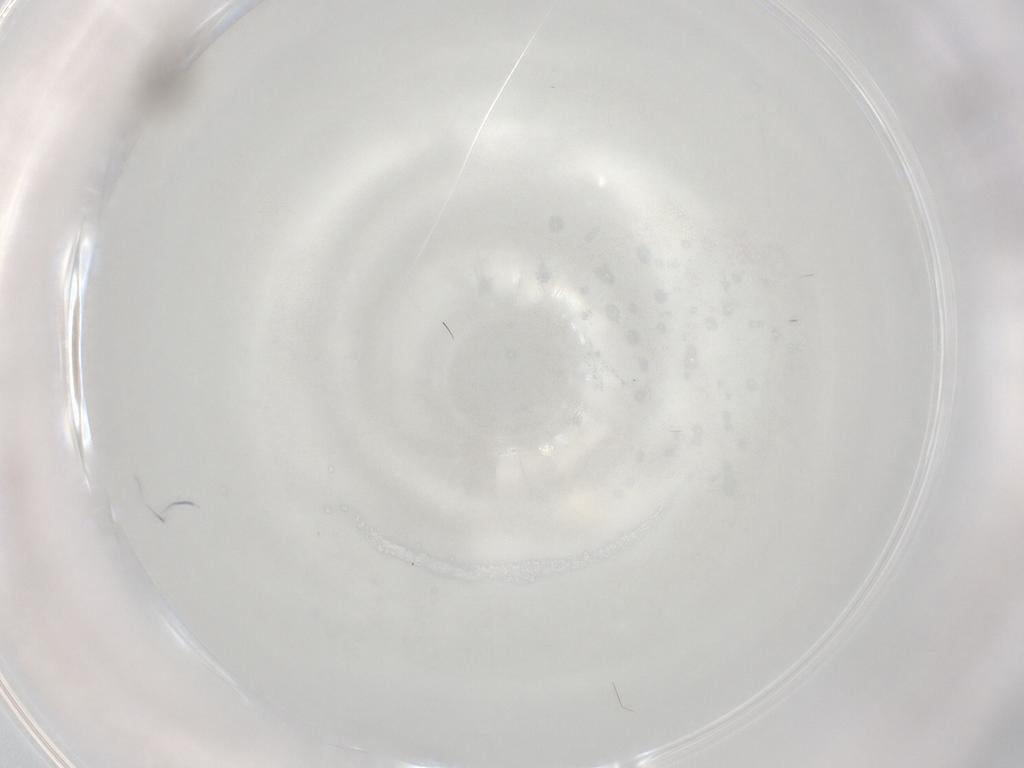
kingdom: Animalia
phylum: Arthropoda
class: Insecta
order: Diptera
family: Cecidomyiidae
